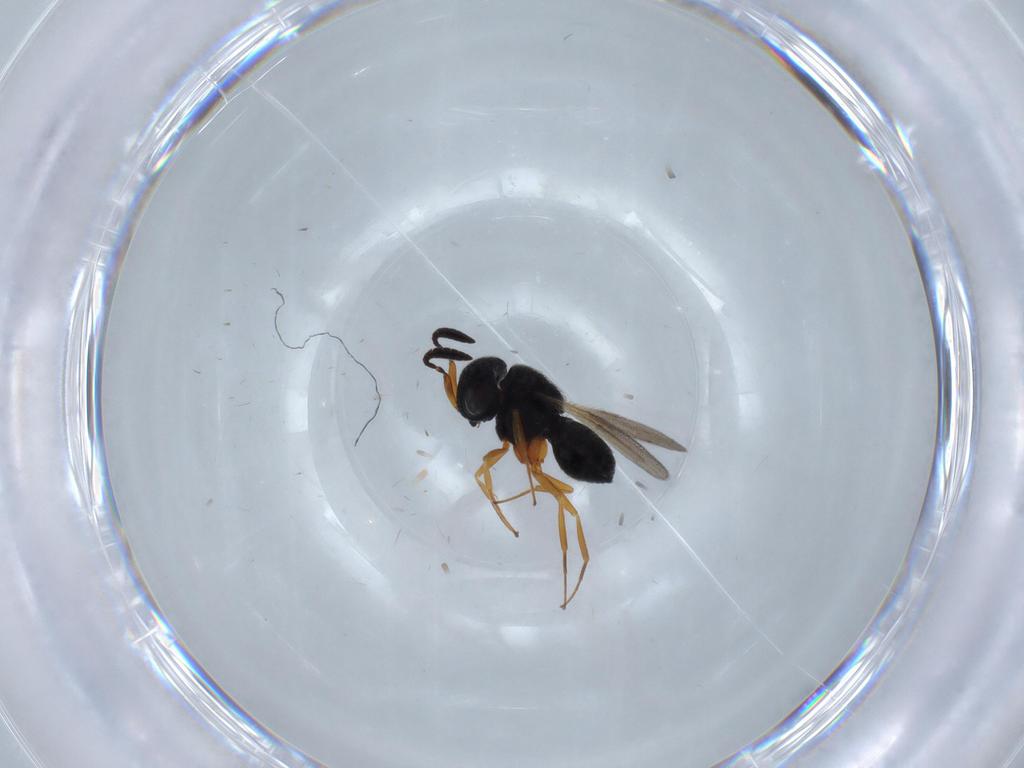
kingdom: Animalia
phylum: Arthropoda
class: Insecta
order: Hymenoptera
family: Scelionidae
